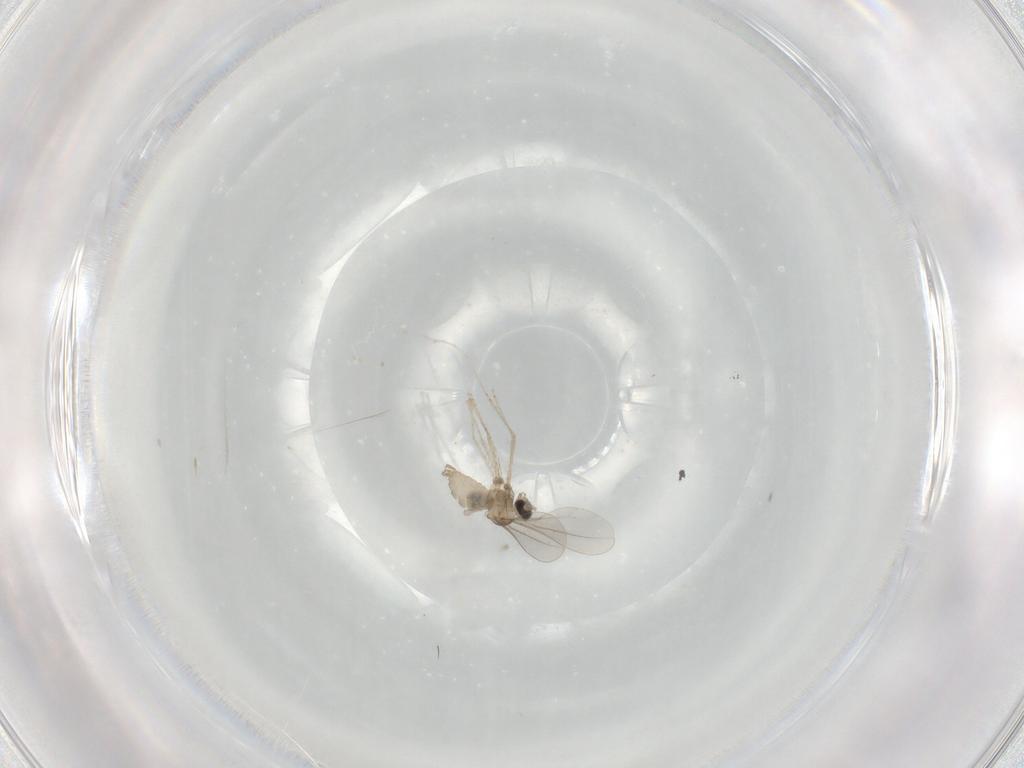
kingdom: Animalia
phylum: Arthropoda
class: Insecta
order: Diptera
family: Cecidomyiidae
